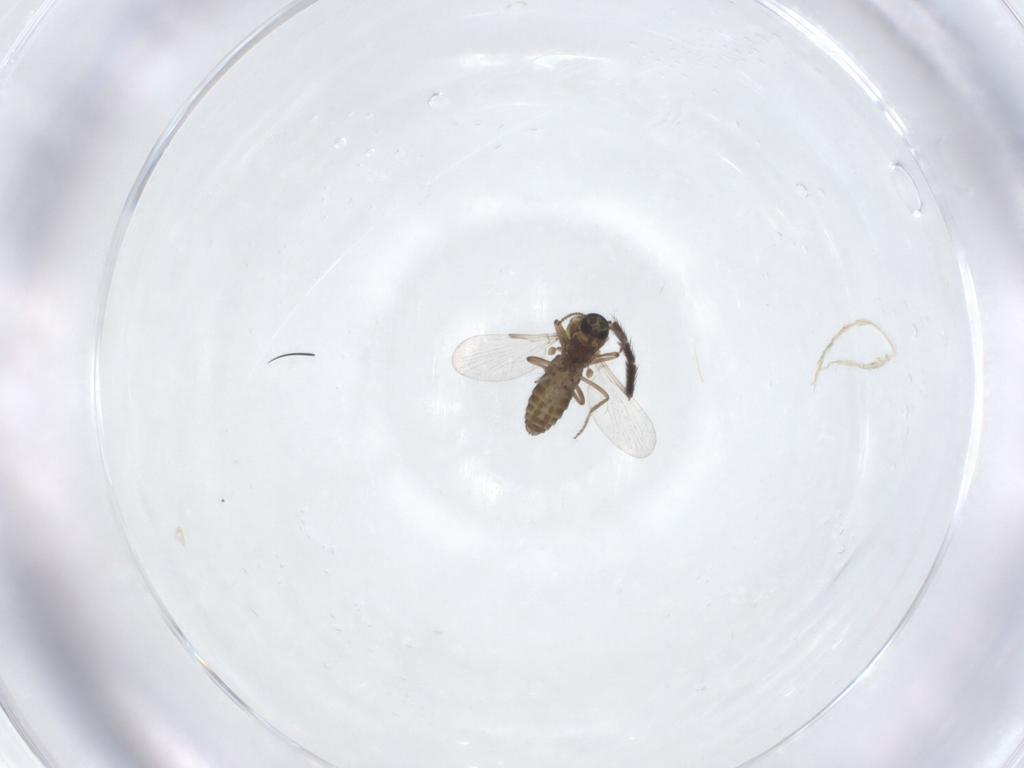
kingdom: Animalia
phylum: Arthropoda
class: Insecta
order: Diptera
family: Ceratopogonidae
